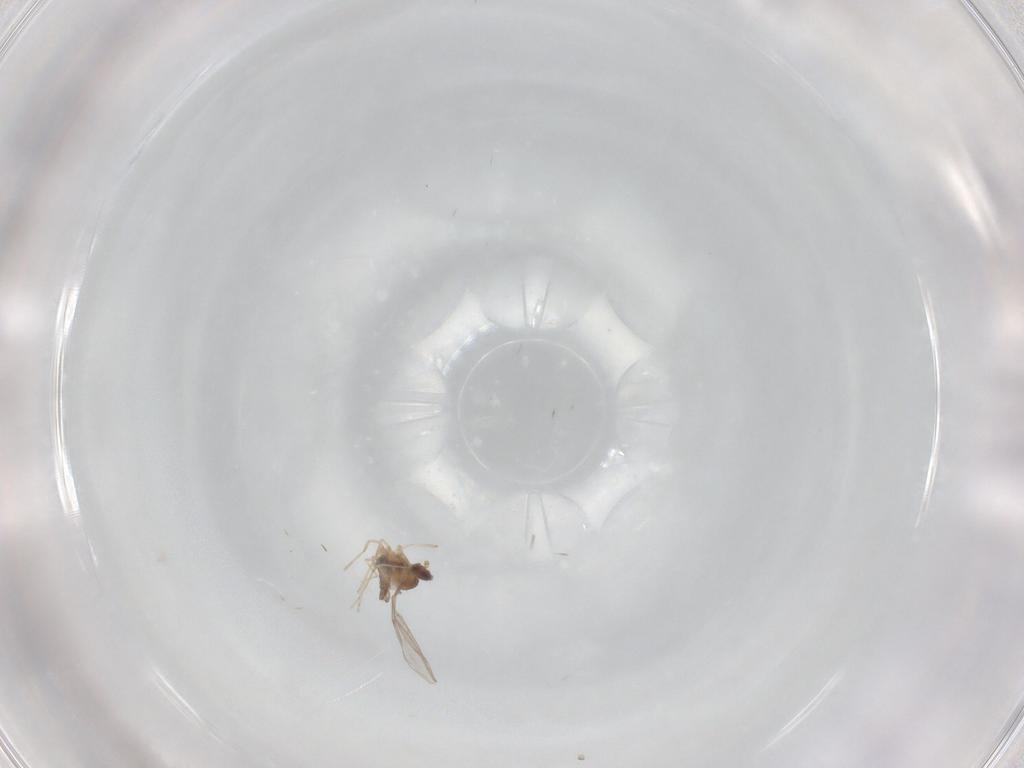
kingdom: Animalia
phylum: Arthropoda
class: Insecta
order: Diptera
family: Cecidomyiidae
